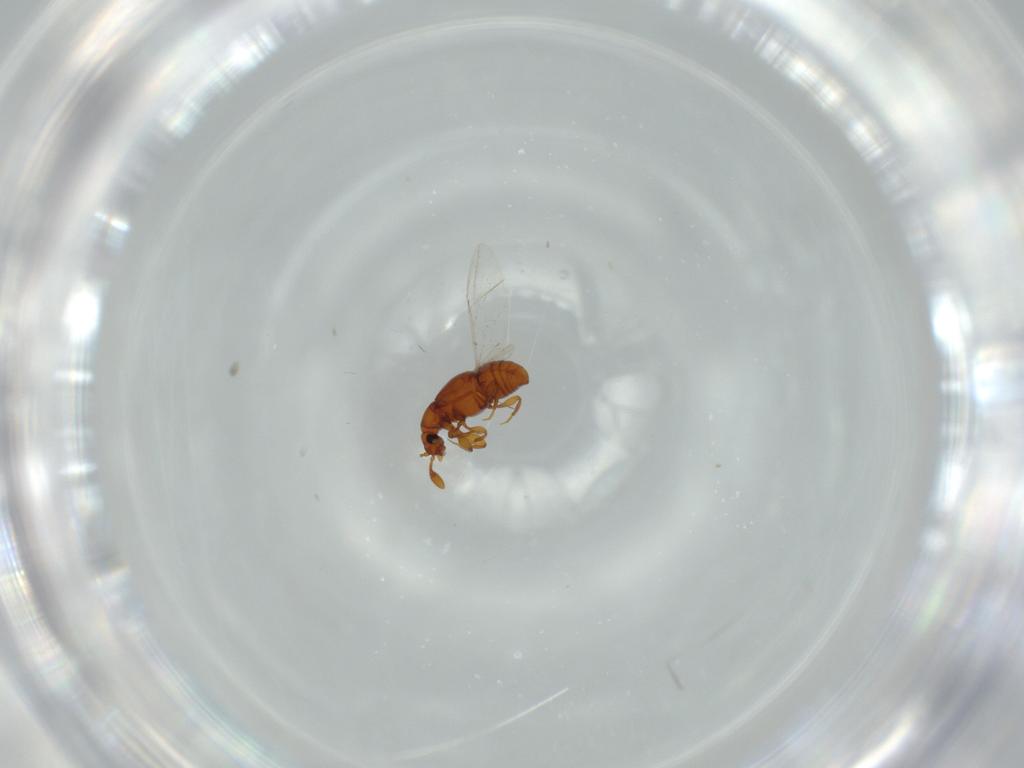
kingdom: Animalia
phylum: Arthropoda
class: Insecta
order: Coleoptera
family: Staphylinidae
